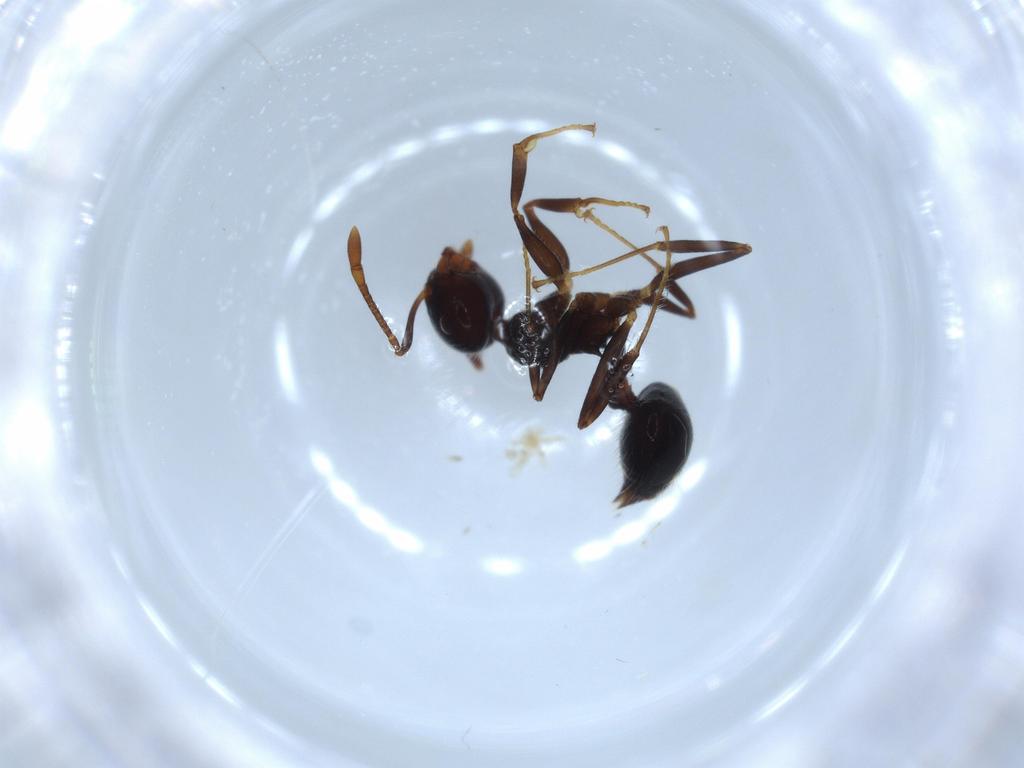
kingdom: Animalia
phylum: Arthropoda
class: Insecta
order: Hymenoptera
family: Formicidae
